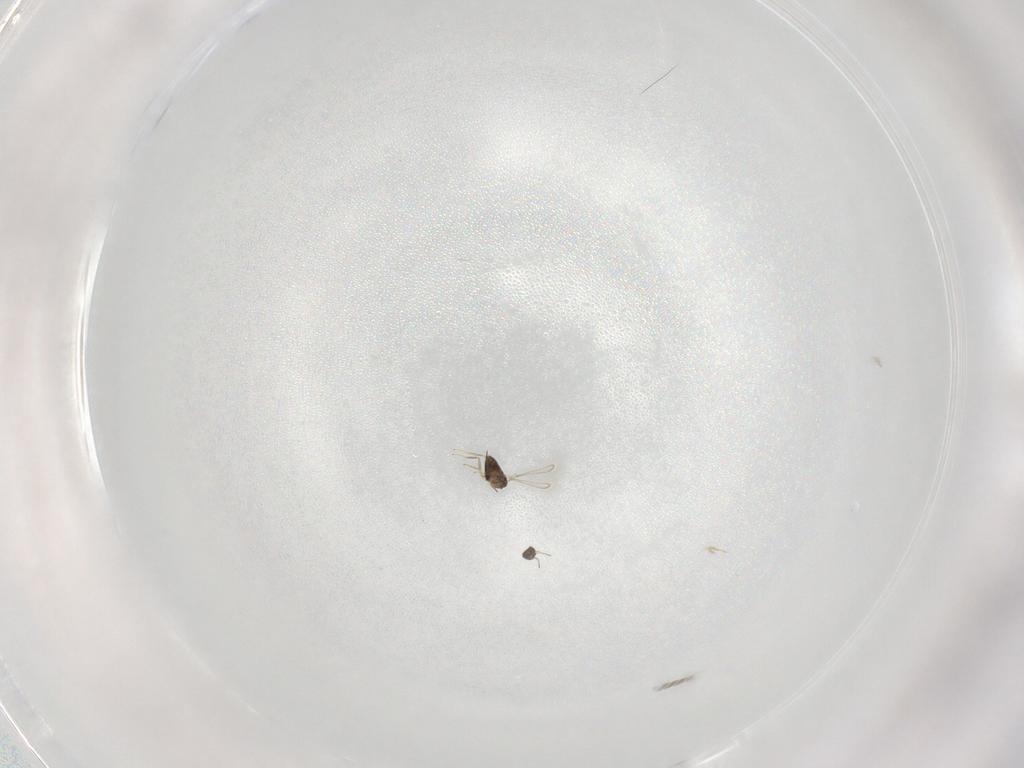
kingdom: Animalia
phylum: Arthropoda
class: Insecta
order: Hymenoptera
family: Mymaridae
